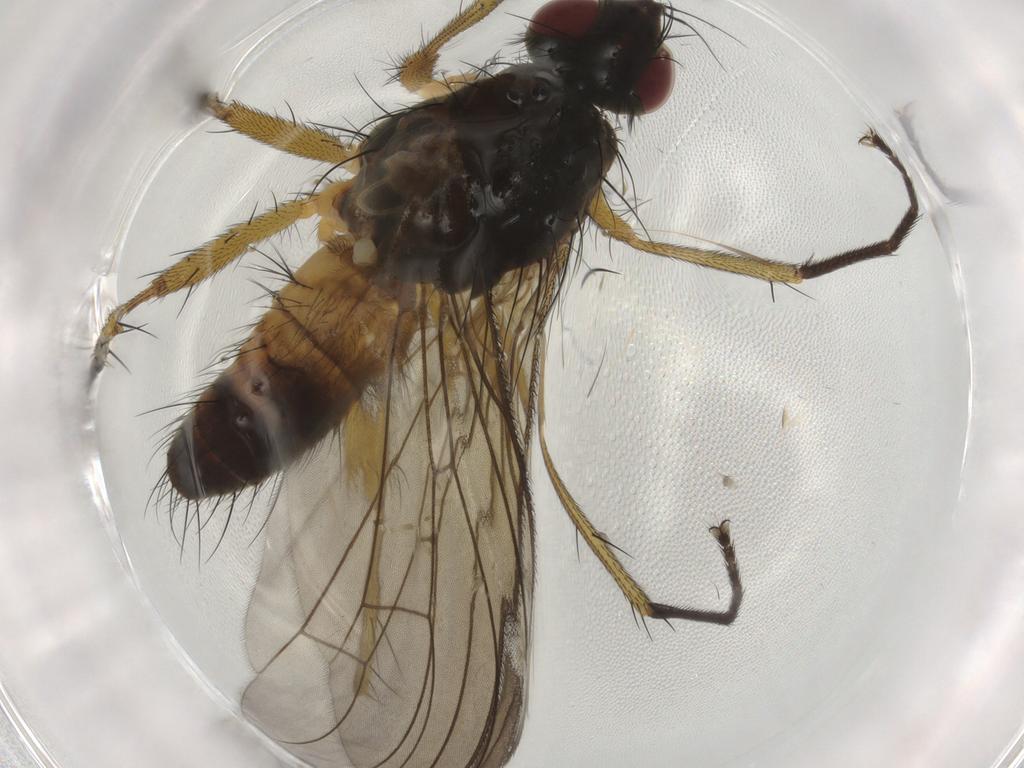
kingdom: Animalia
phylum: Arthropoda
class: Insecta
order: Diptera
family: Muscidae
